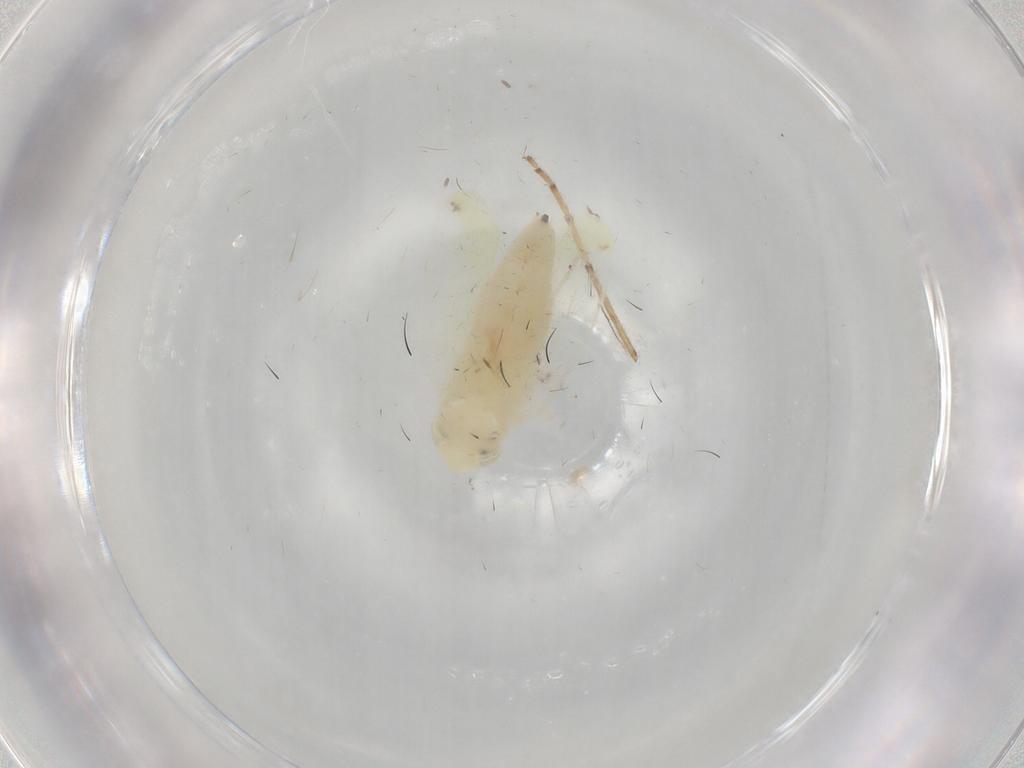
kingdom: Animalia
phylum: Arthropoda
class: Insecta
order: Hemiptera
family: Cicadellidae
